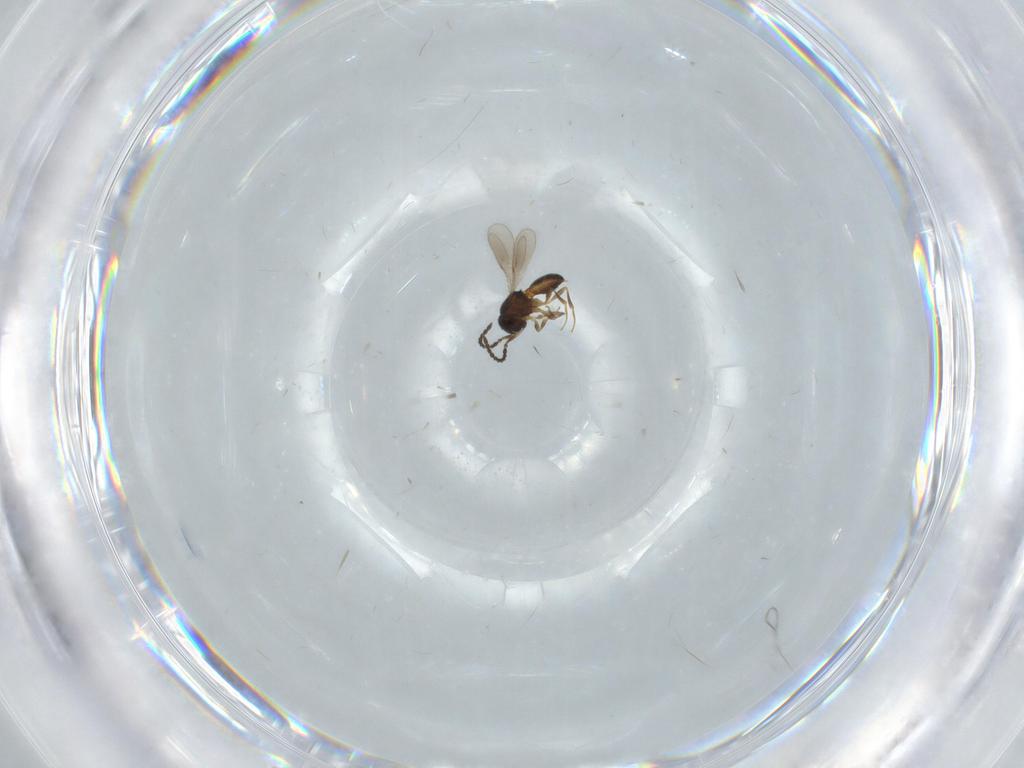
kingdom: Animalia
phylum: Arthropoda
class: Insecta
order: Hymenoptera
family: Scelionidae
